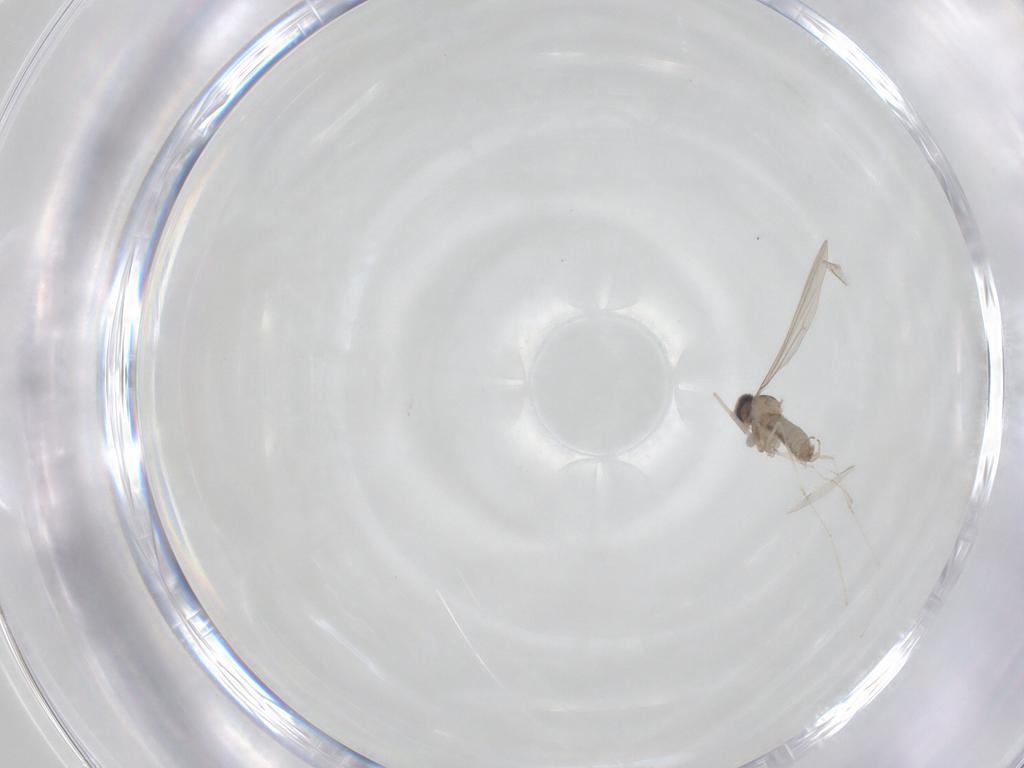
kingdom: Animalia
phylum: Arthropoda
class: Insecta
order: Diptera
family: Cecidomyiidae
